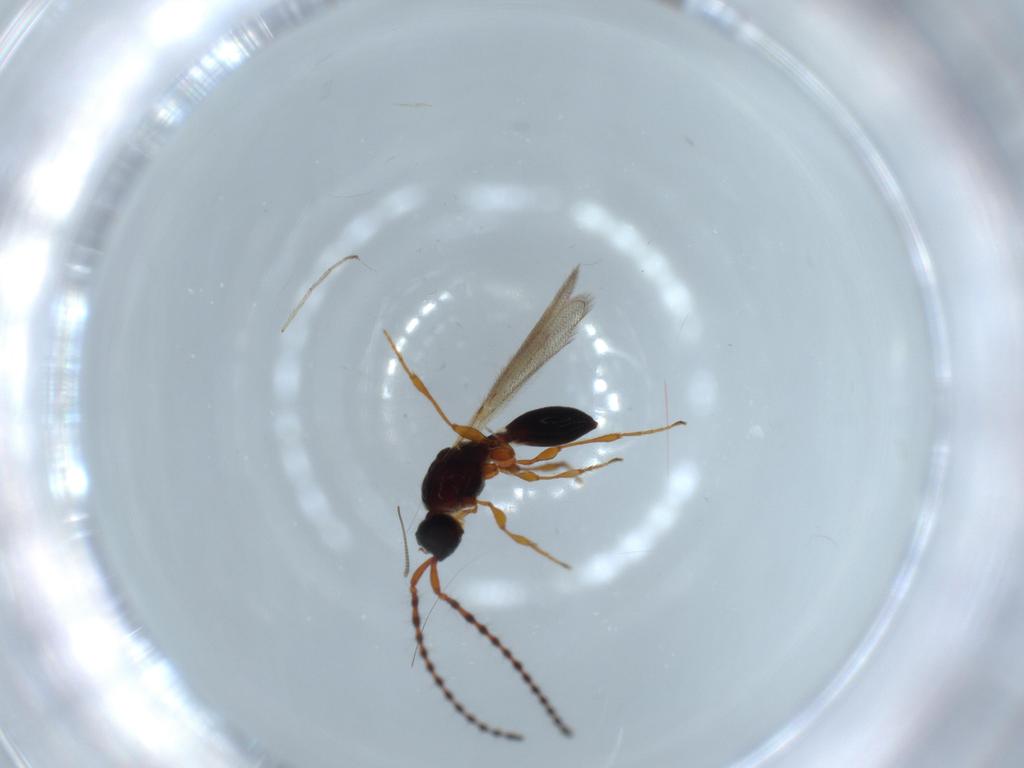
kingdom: Animalia
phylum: Arthropoda
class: Insecta
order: Hymenoptera
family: Diapriidae
